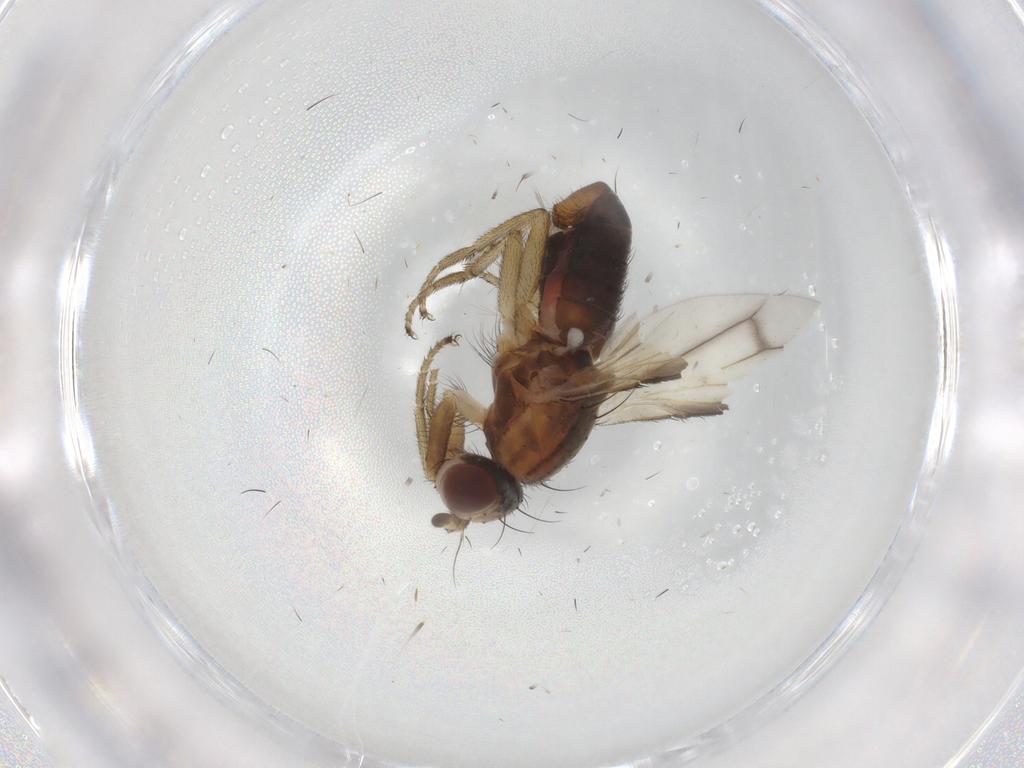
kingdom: Animalia
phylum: Arthropoda
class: Insecta
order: Diptera
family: Heleomyzidae
